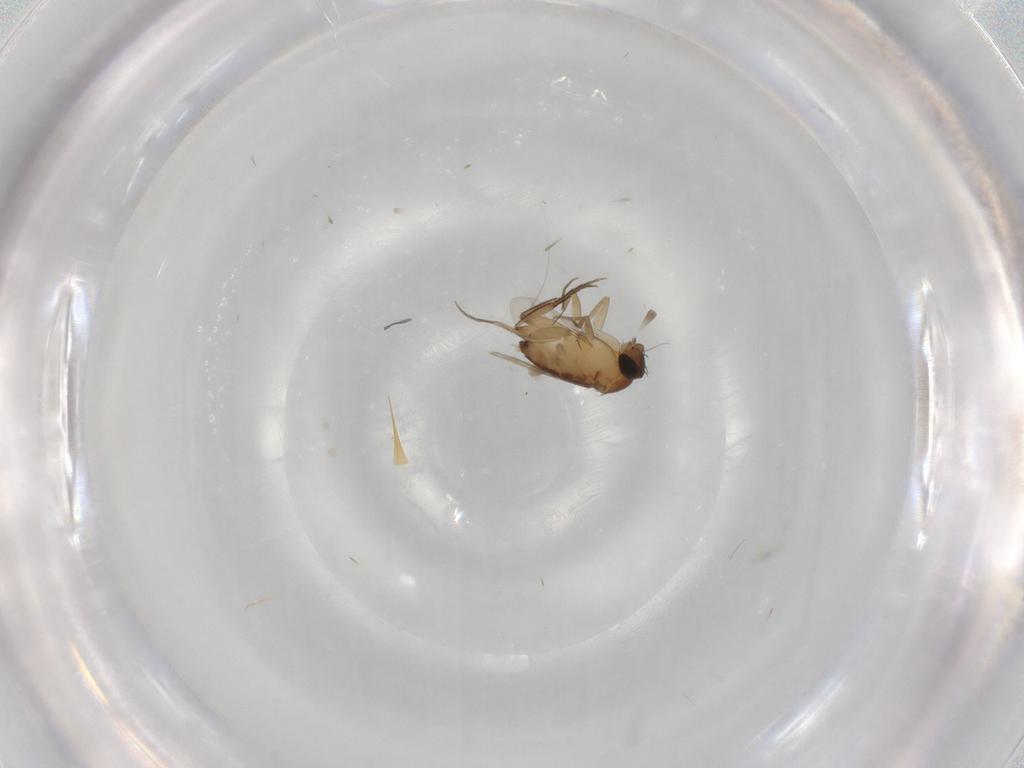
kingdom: Animalia
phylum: Arthropoda
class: Insecta
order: Diptera
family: Phoridae
